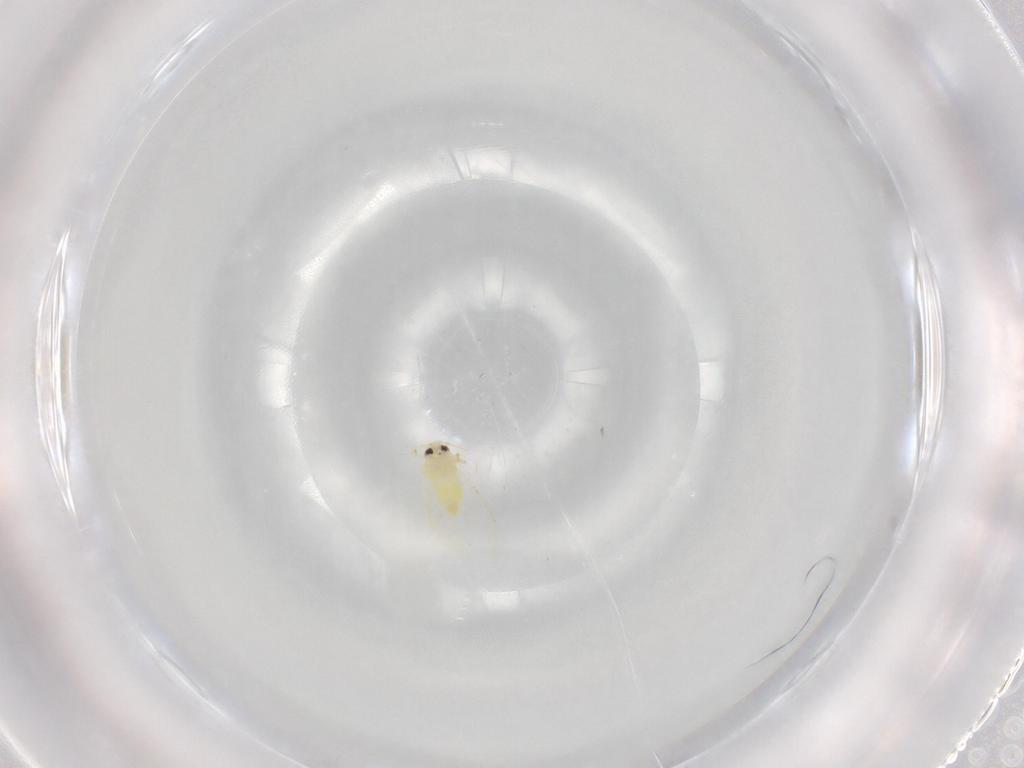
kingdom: Animalia
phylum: Arthropoda
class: Insecta
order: Hemiptera
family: Aleyrodidae
